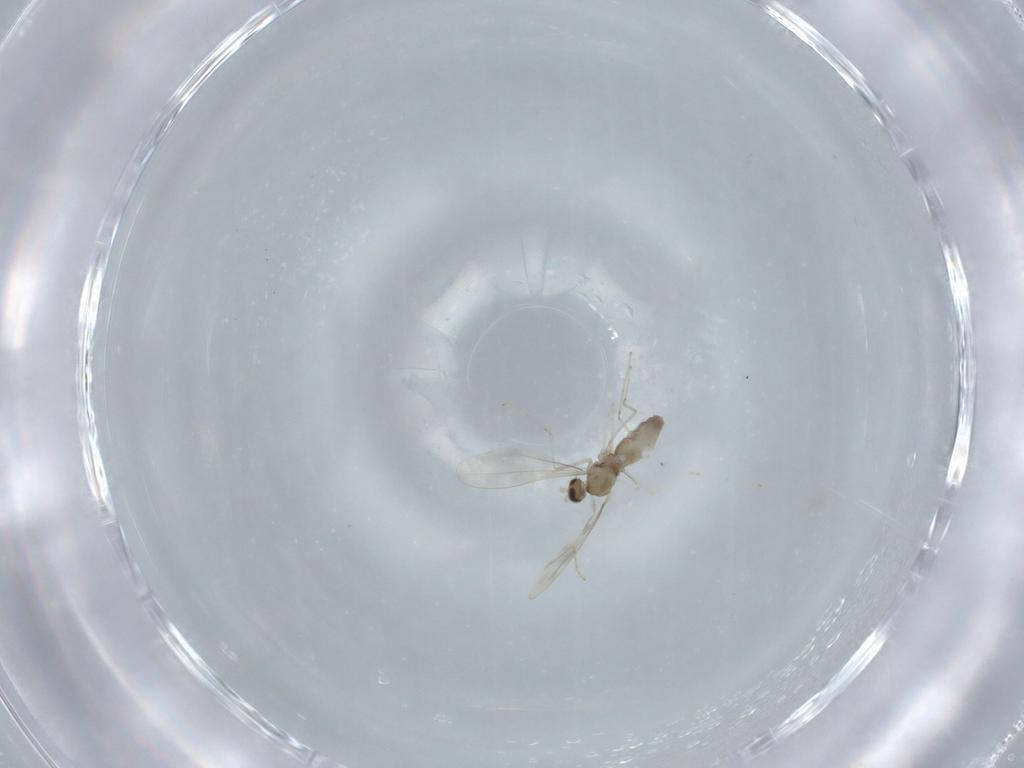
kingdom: Animalia
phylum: Arthropoda
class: Insecta
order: Diptera
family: Cecidomyiidae
